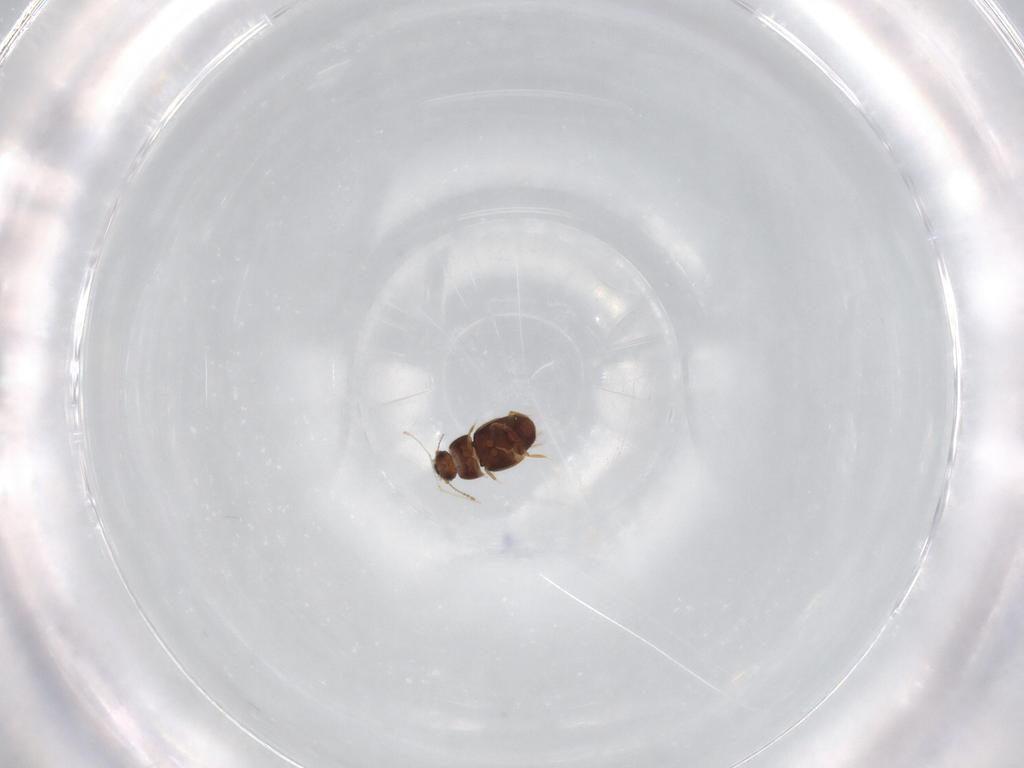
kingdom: Animalia
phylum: Arthropoda
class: Insecta
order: Coleoptera
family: Ptiliidae
